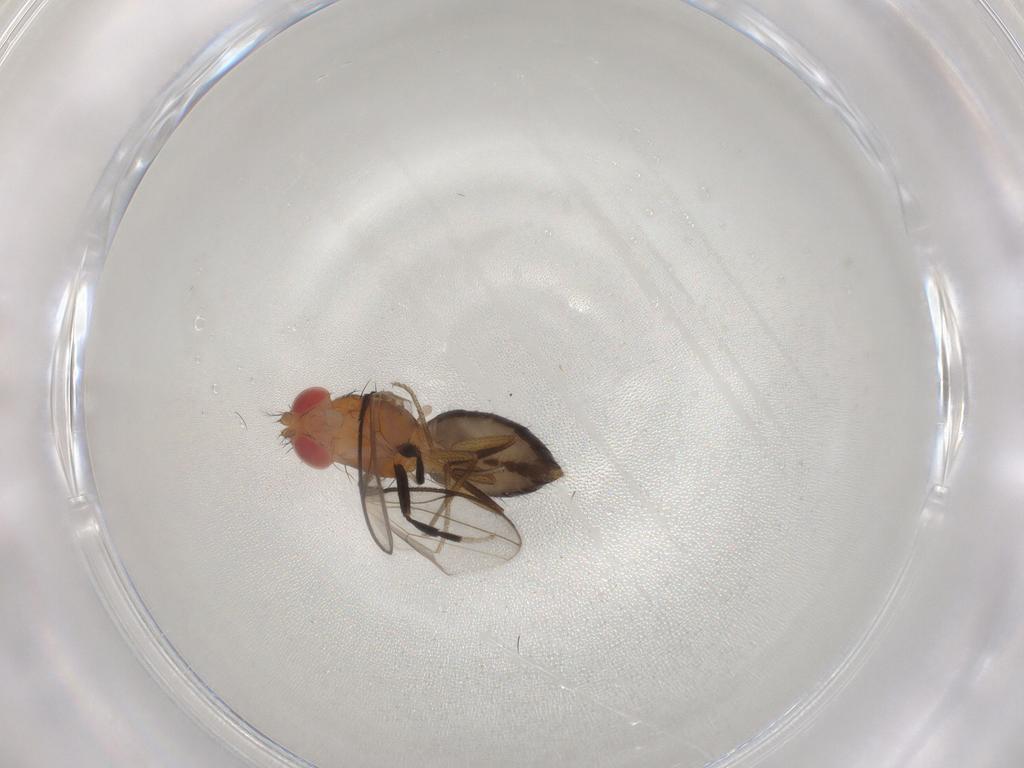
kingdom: Animalia
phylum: Arthropoda
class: Insecta
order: Diptera
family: Drosophilidae
